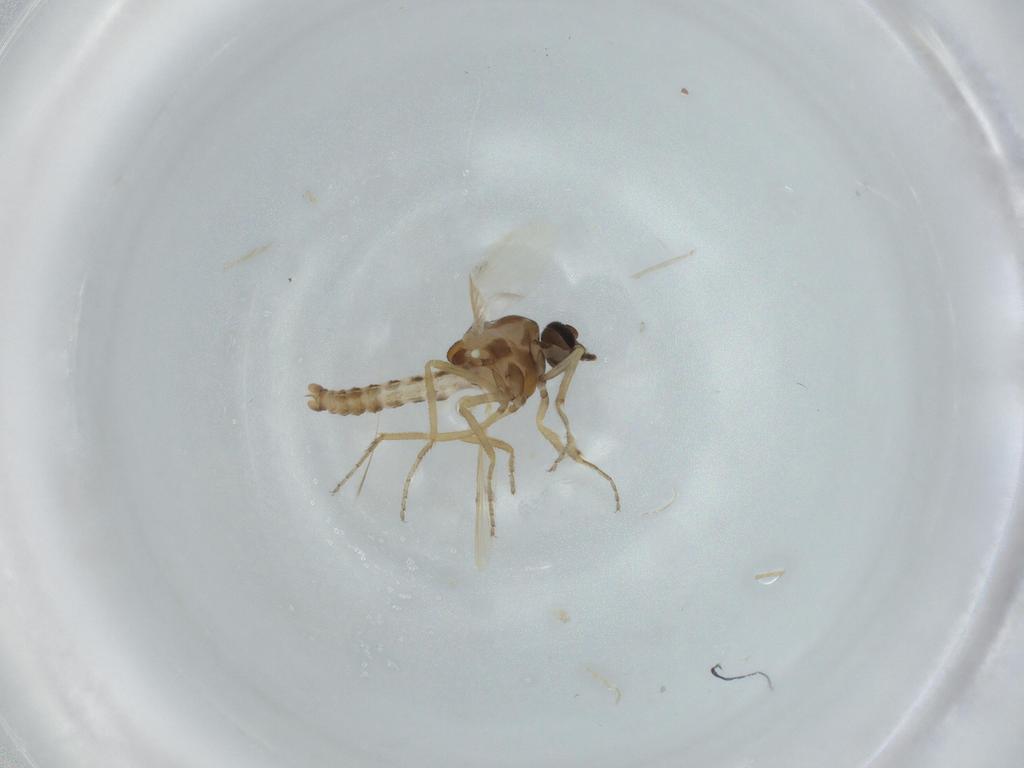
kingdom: Animalia
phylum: Arthropoda
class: Insecta
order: Diptera
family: Ceratopogonidae
